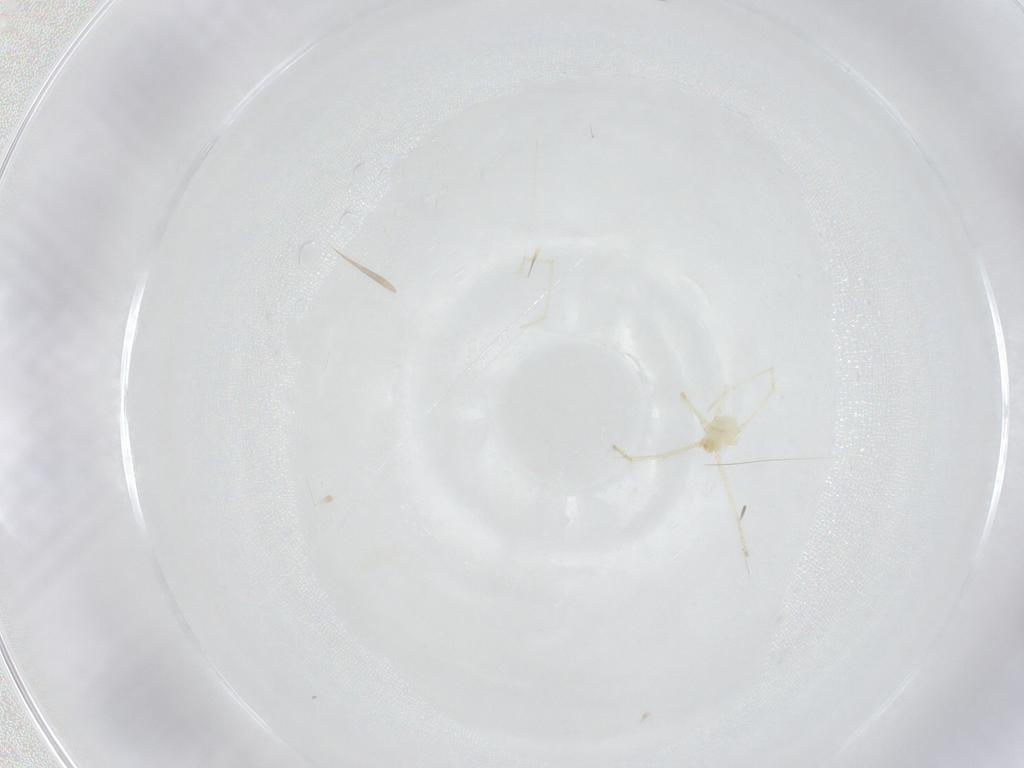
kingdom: Animalia
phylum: Arthropoda
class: Insecta
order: Lepidoptera
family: Depressariidae
